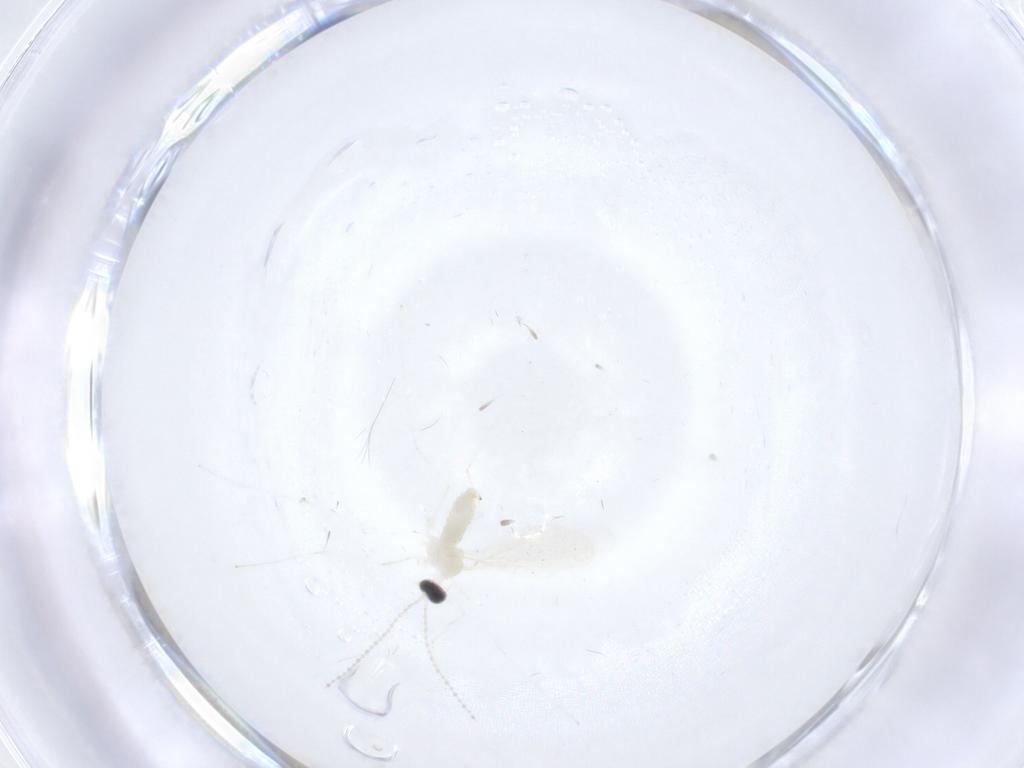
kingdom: Animalia
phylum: Arthropoda
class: Insecta
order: Diptera
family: Cecidomyiidae
